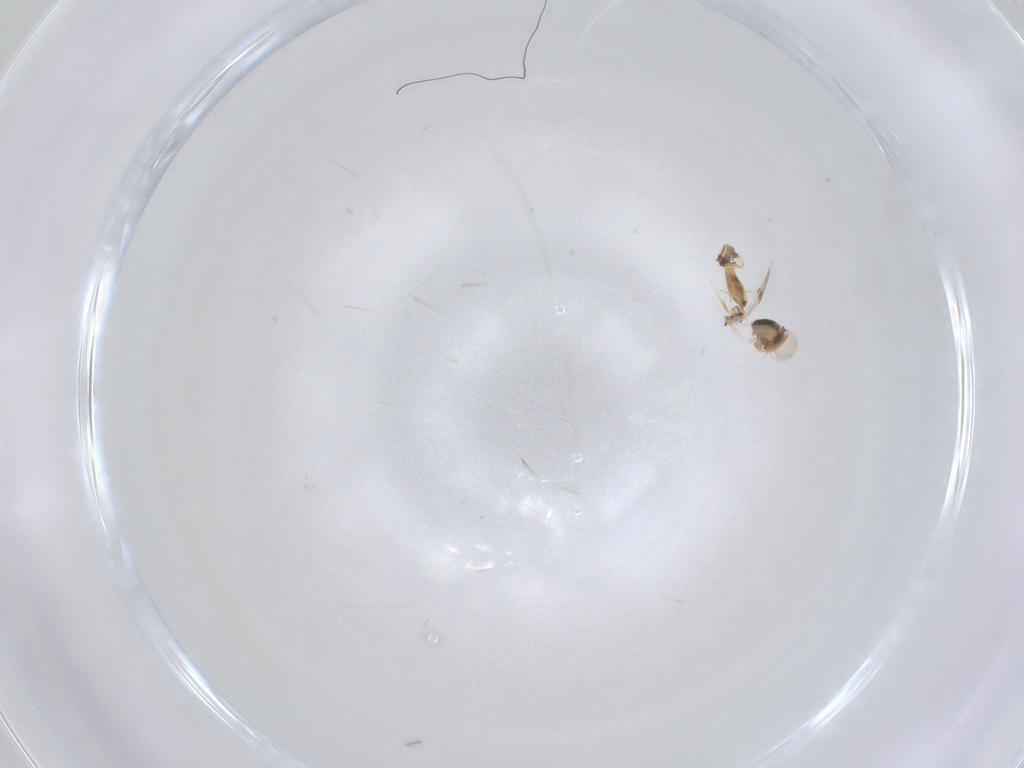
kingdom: Animalia
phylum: Arthropoda
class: Insecta
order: Hymenoptera
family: Scelionidae
